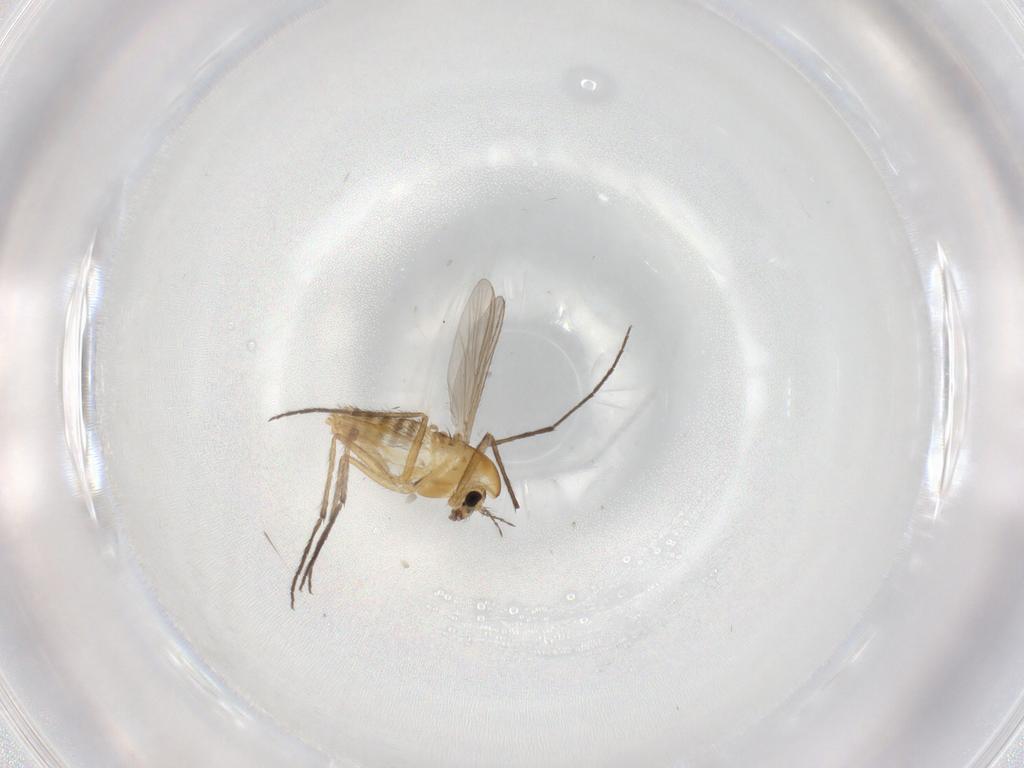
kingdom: Animalia
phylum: Arthropoda
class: Insecta
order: Diptera
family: Chironomidae
